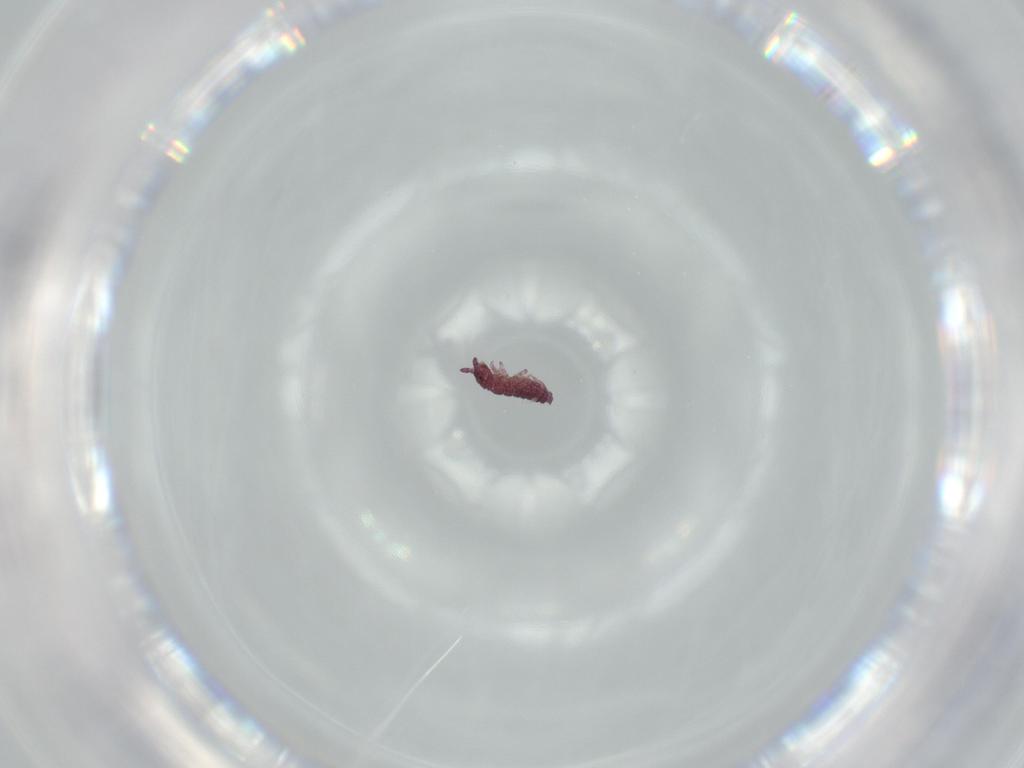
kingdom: Animalia
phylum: Arthropoda
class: Collembola
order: Poduromorpha
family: Hypogastruridae
